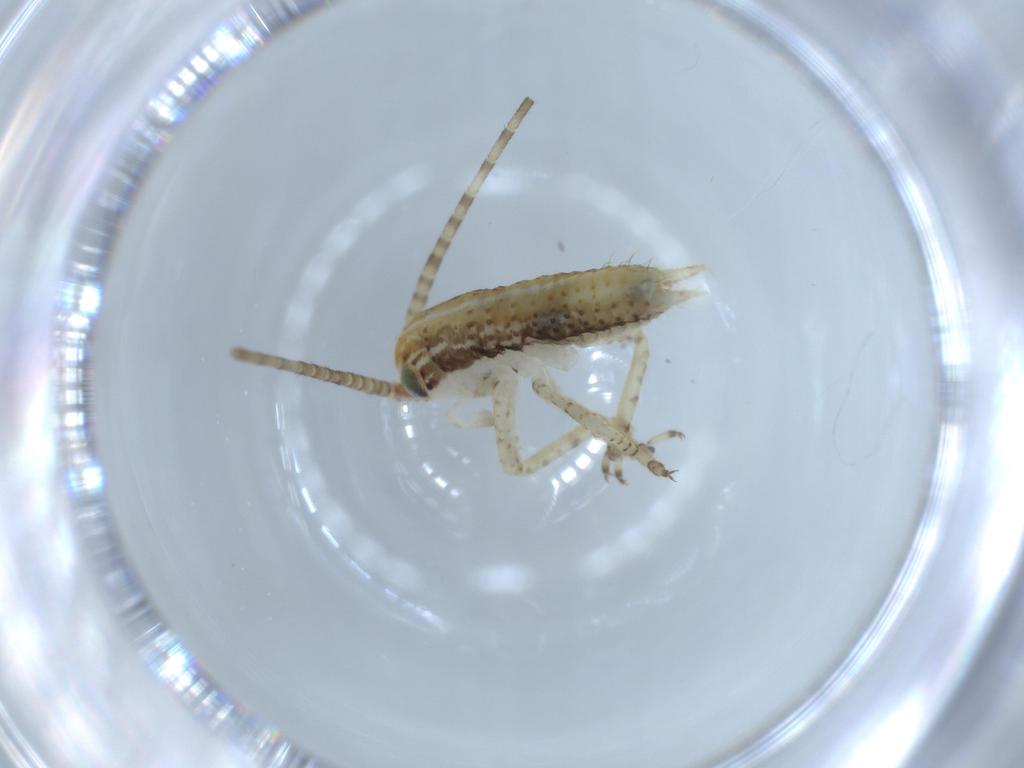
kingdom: Animalia
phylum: Arthropoda
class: Insecta
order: Orthoptera
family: Gryllidae
